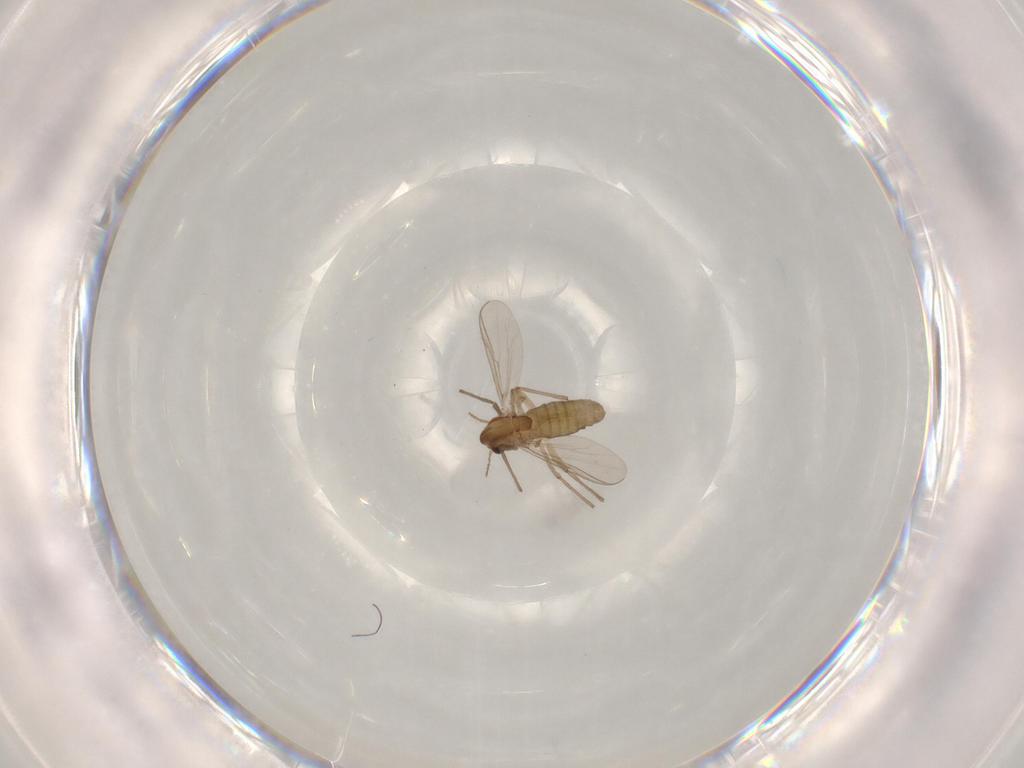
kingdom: Animalia
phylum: Arthropoda
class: Insecta
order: Diptera
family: Chironomidae
